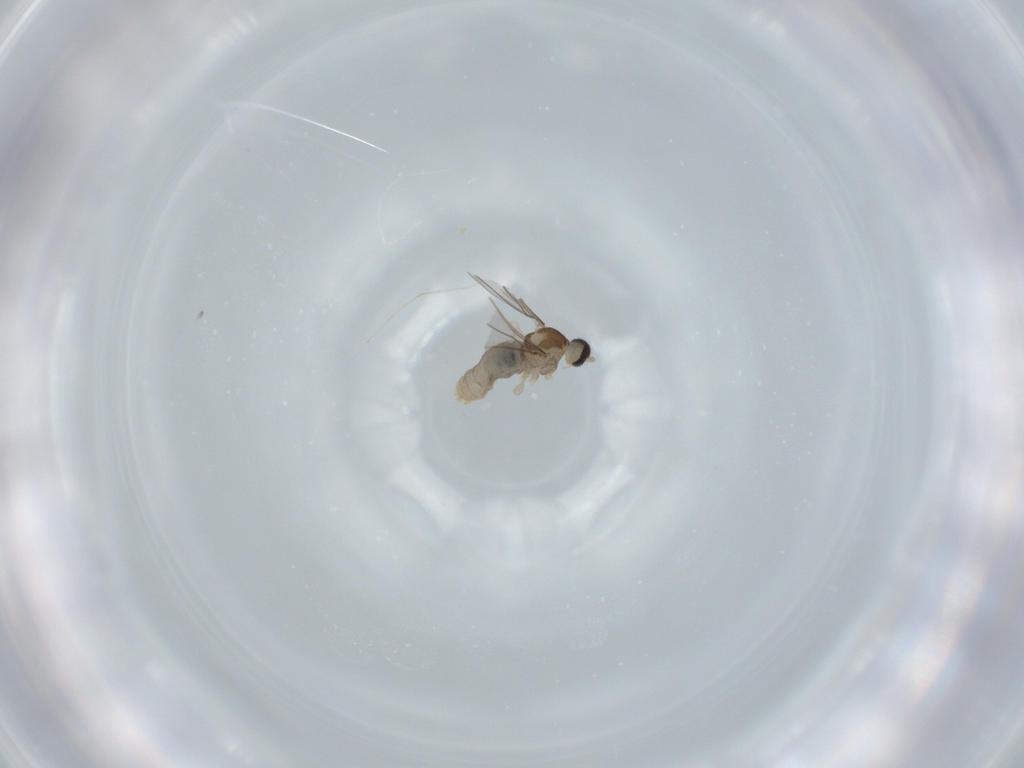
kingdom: Animalia
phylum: Arthropoda
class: Insecta
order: Diptera
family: Cecidomyiidae
